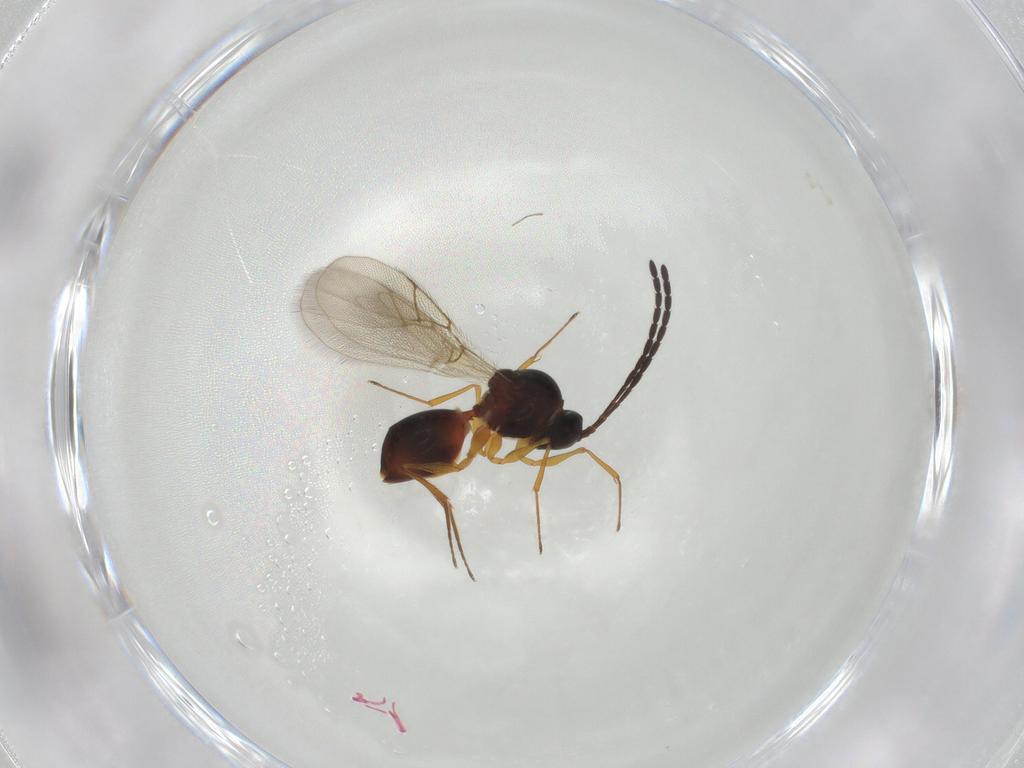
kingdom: Animalia
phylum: Arthropoda
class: Insecta
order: Hymenoptera
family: Figitidae
